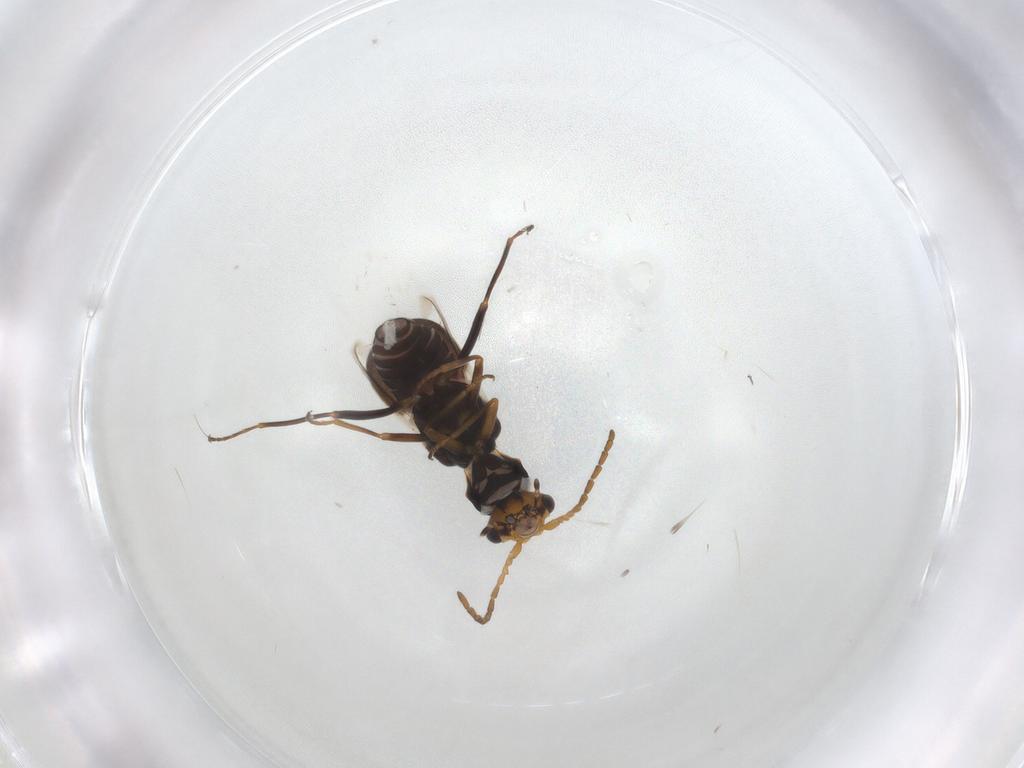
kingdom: Animalia
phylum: Arthropoda
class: Insecta
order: Coleoptera
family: Melyridae
